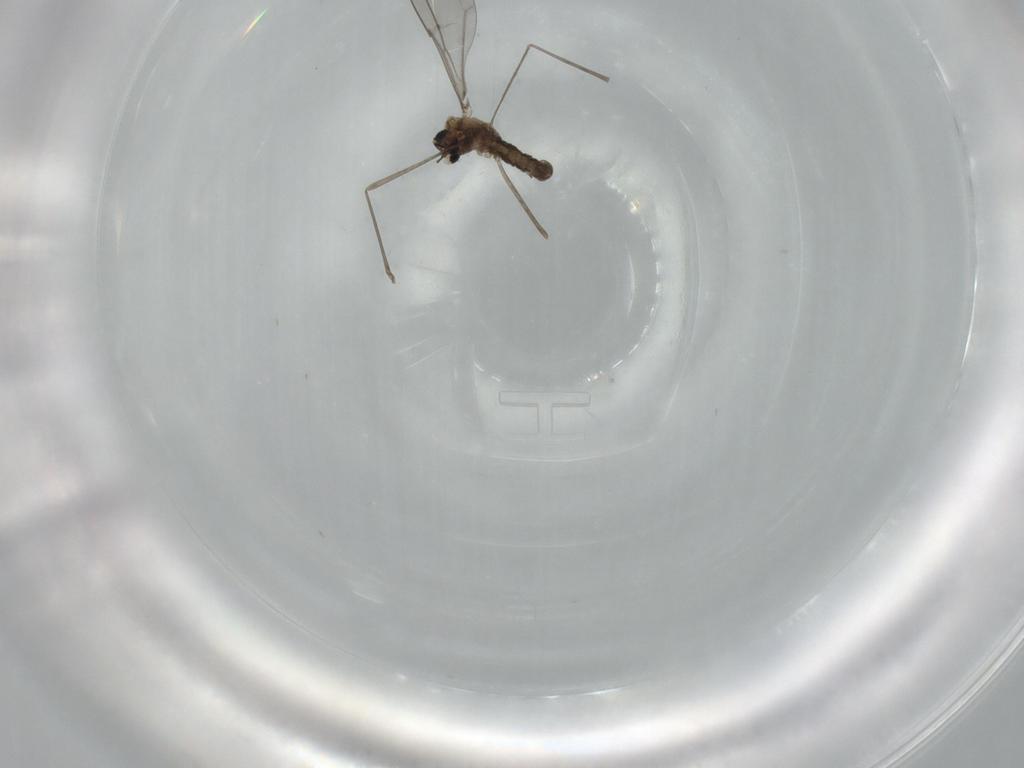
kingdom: Animalia
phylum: Arthropoda
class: Insecta
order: Diptera
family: Cecidomyiidae
